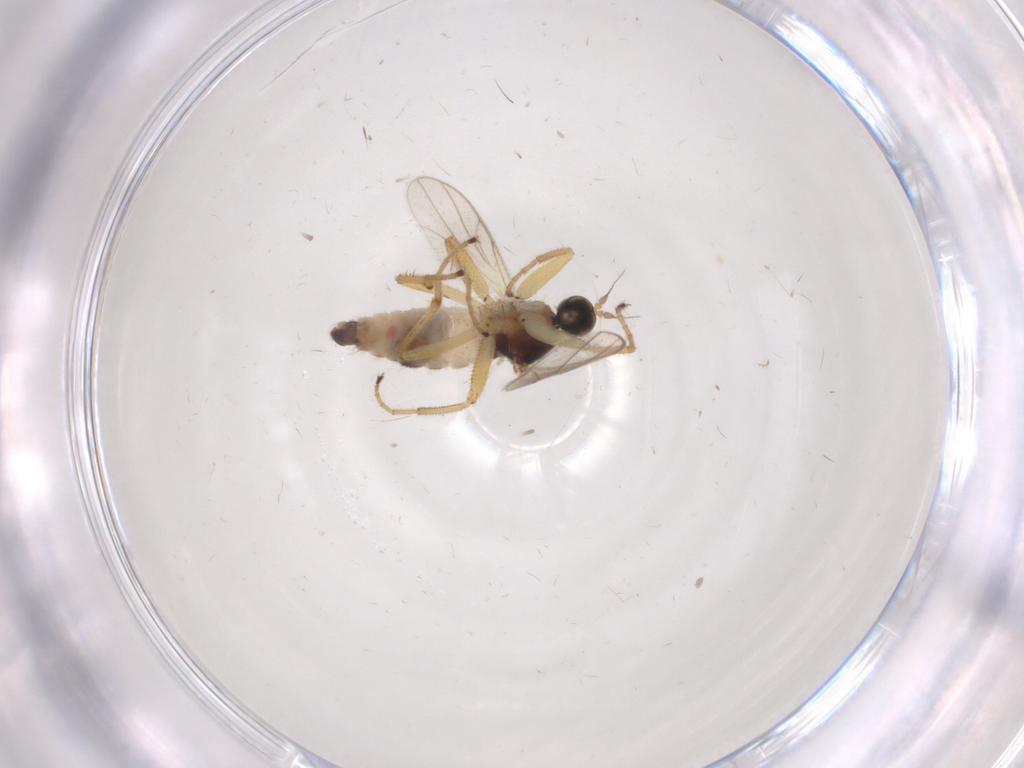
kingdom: Animalia
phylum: Arthropoda
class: Insecta
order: Diptera
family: Hybotidae
